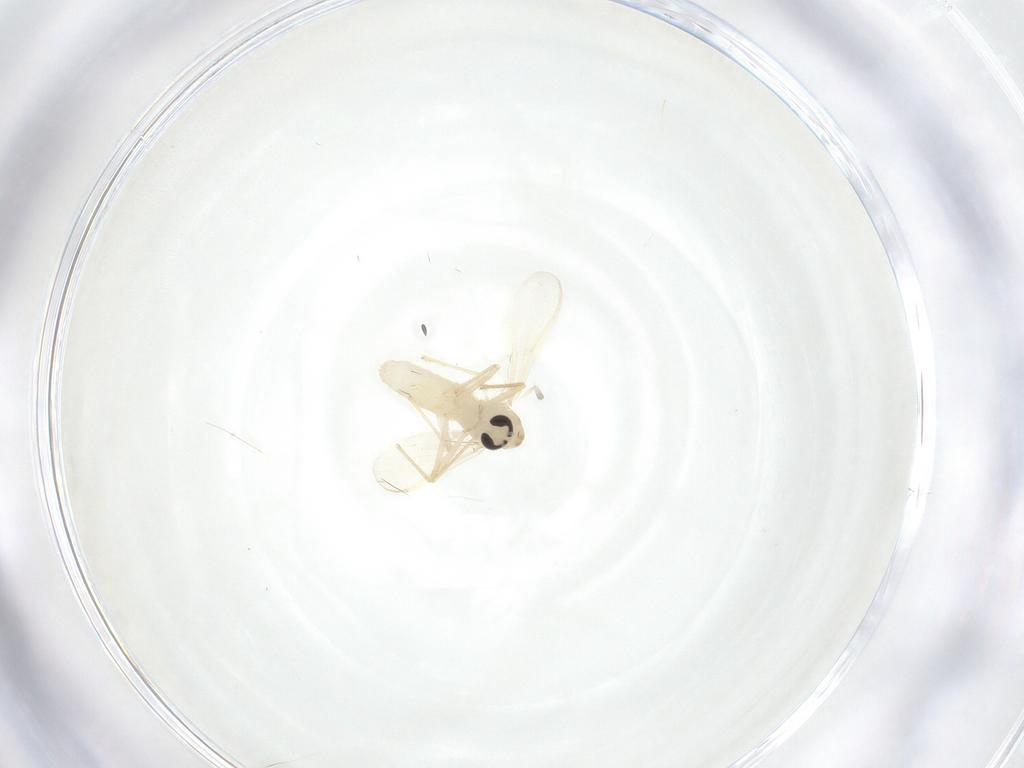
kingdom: Animalia
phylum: Arthropoda
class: Insecta
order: Diptera
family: Chironomidae
